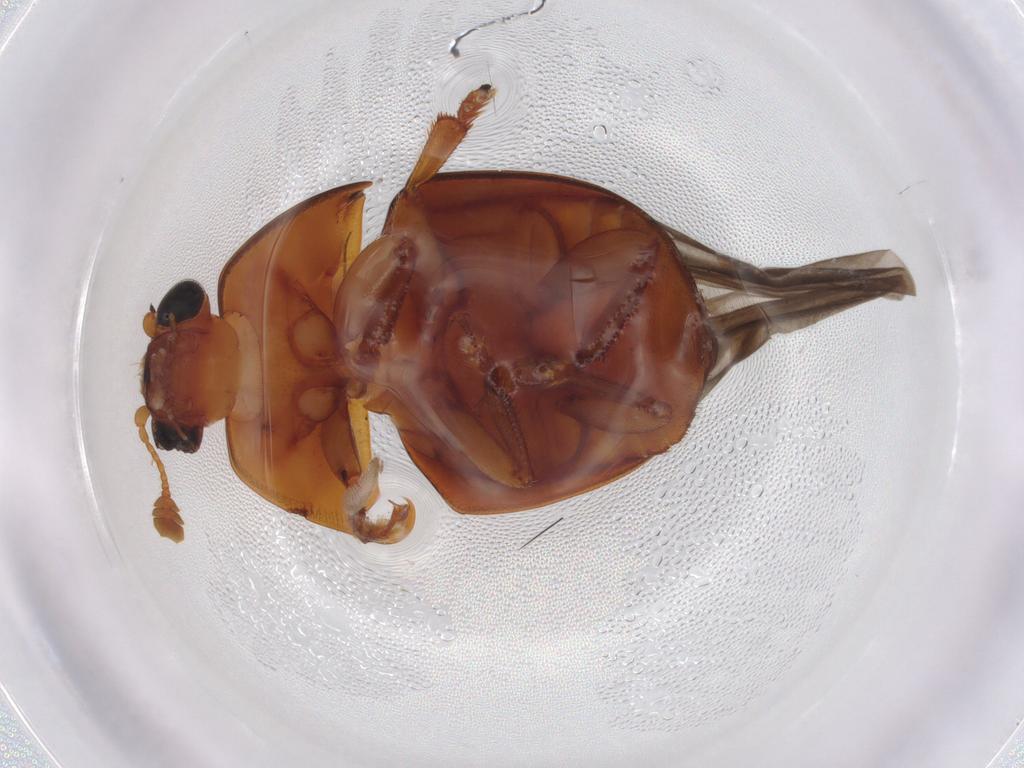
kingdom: Animalia
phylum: Arthropoda
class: Insecta
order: Coleoptera
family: Nitidulidae
